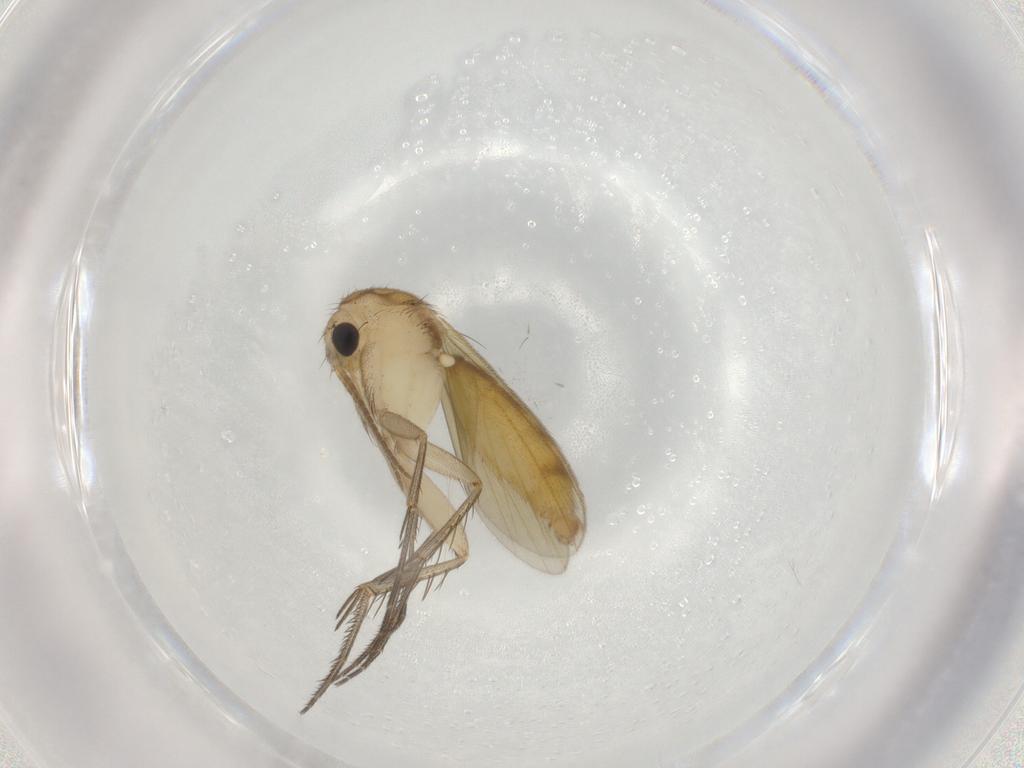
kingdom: Animalia
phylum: Arthropoda
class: Insecta
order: Diptera
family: Mycetophilidae
